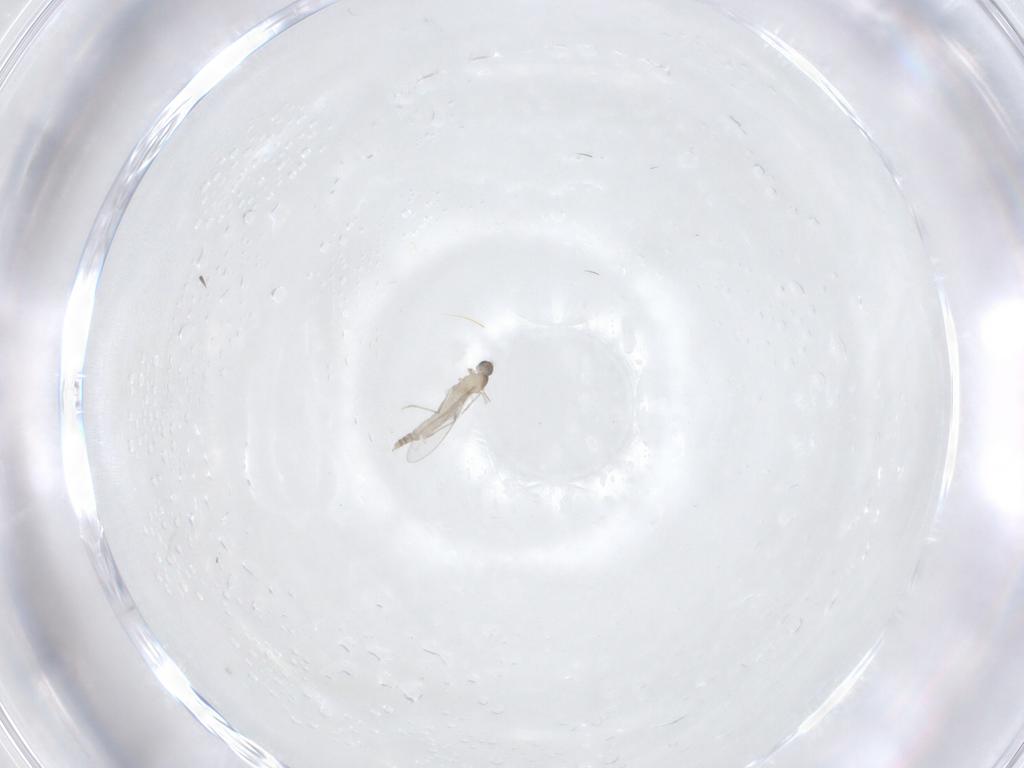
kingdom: Animalia
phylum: Arthropoda
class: Insecta
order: Diptera
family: Cecidomyiidae
